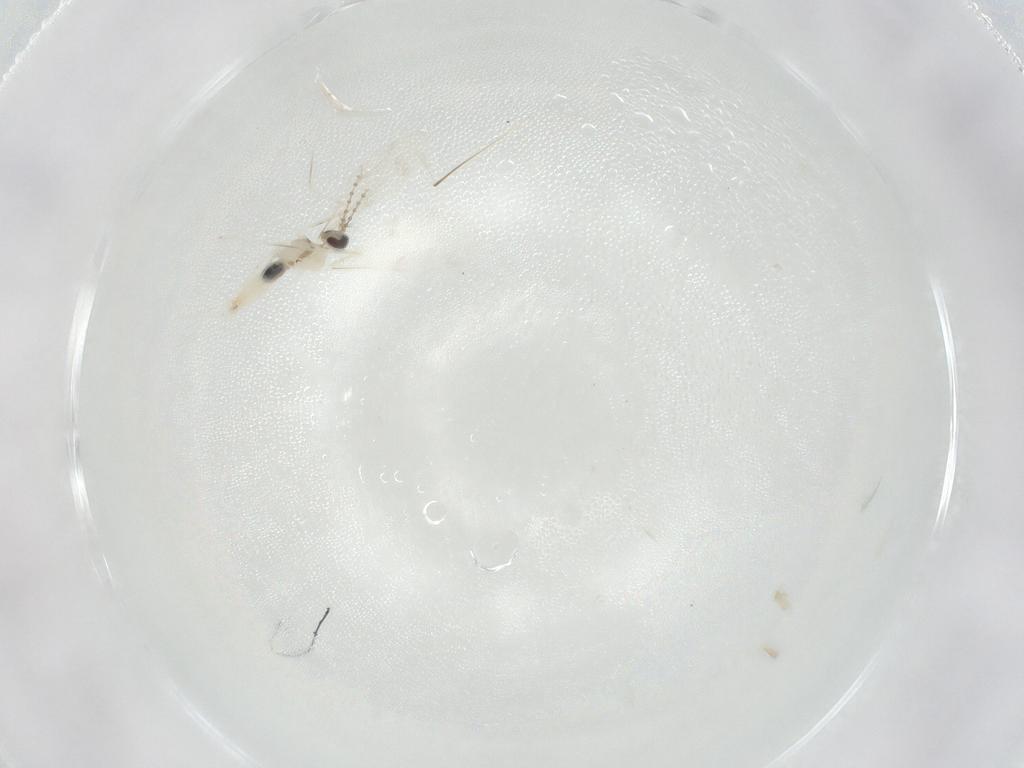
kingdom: Animalia
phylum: Arthropoda
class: Insecta
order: Diptera
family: Cecidomyiidae
